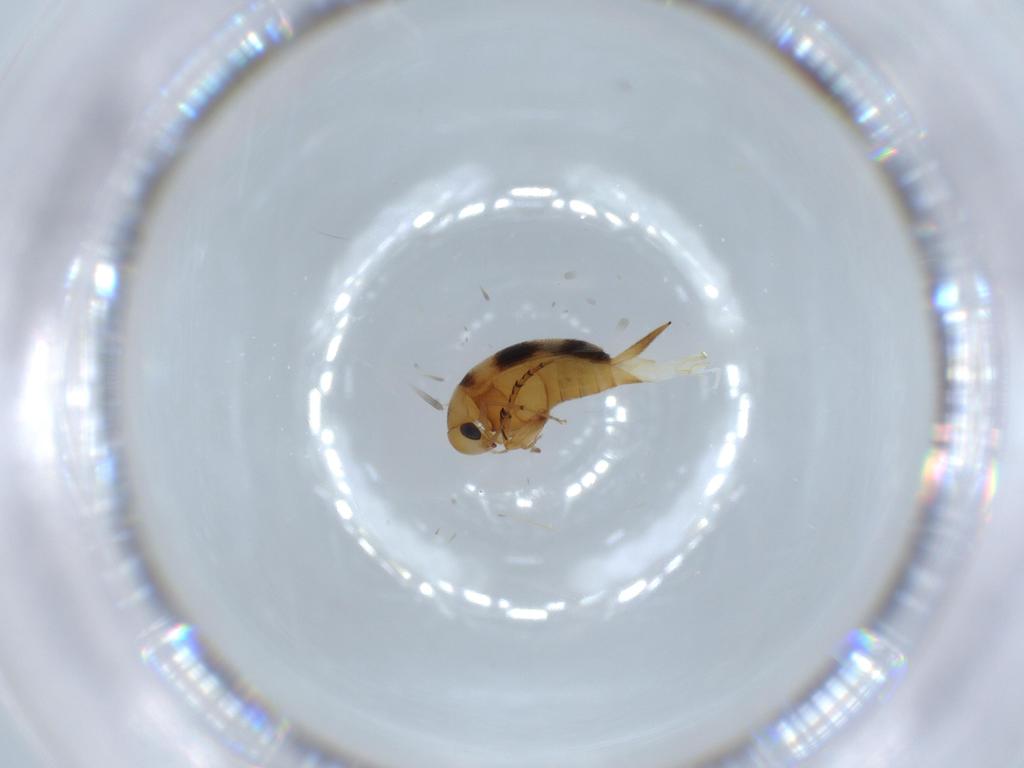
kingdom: Animalia
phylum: Arthropoda
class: Insecta
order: Coleoptera
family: Mordellidae
